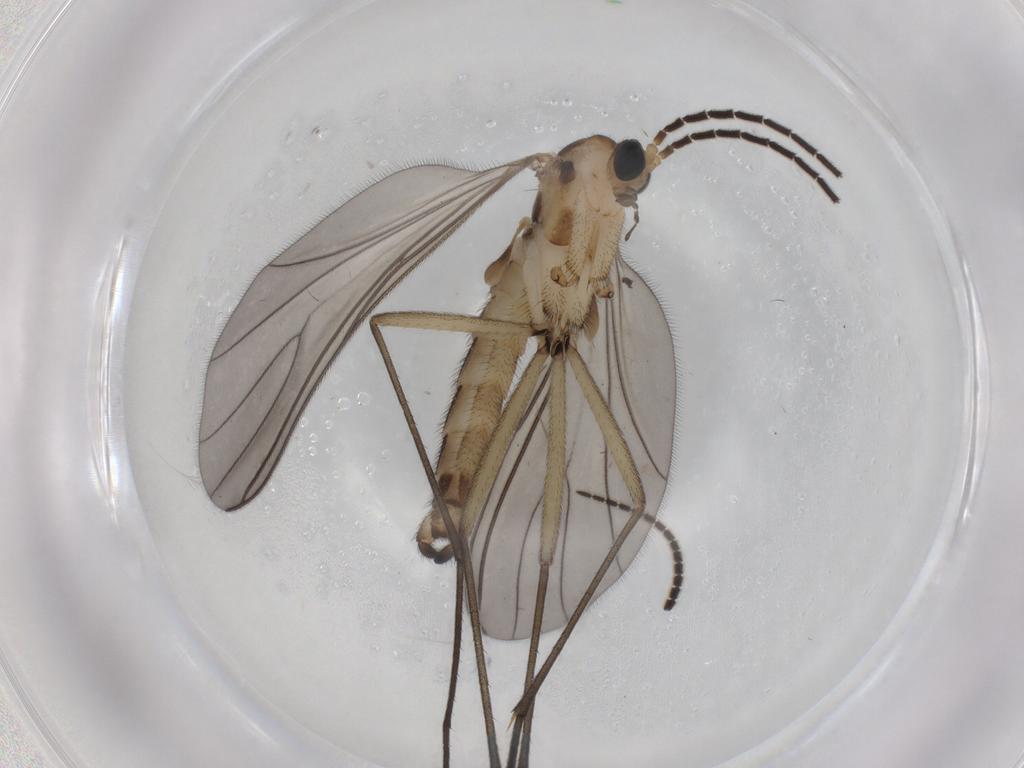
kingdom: Animalia
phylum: Arthropoda
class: Insecta
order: Diptera
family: Sciaridae
